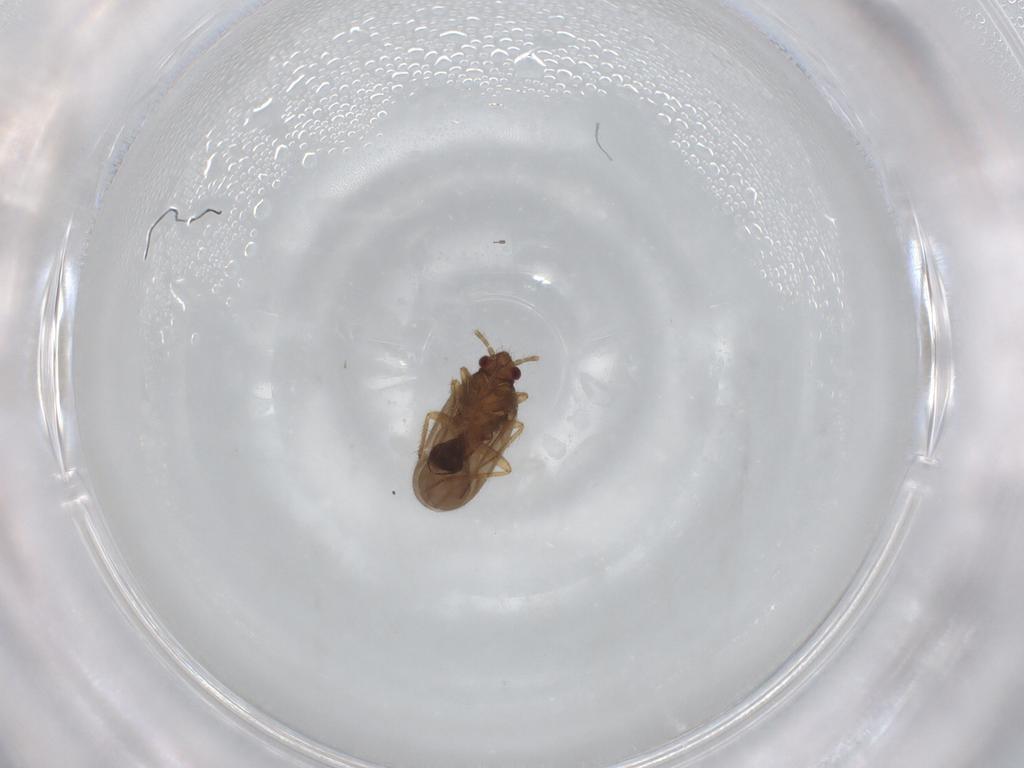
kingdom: Animalia
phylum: Arthropoda
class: Insecta
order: Hemiptera
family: Ceratocombidae
